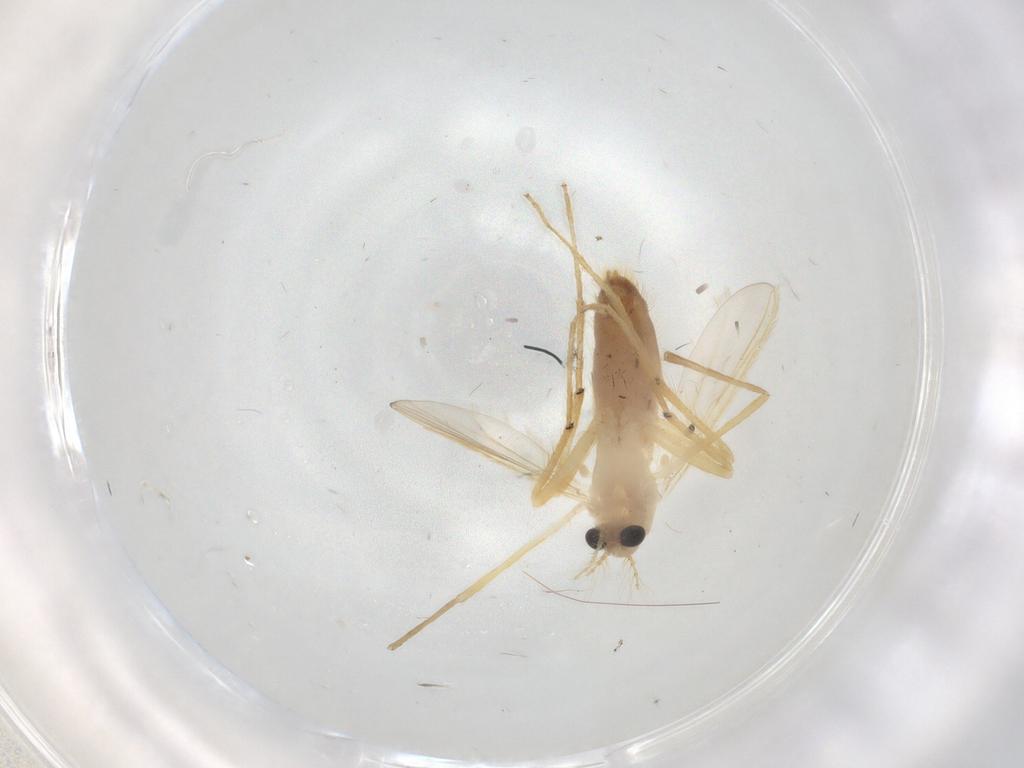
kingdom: Animalia
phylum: Arthropoda
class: Insecta
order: Diptera
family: Chironomidae
